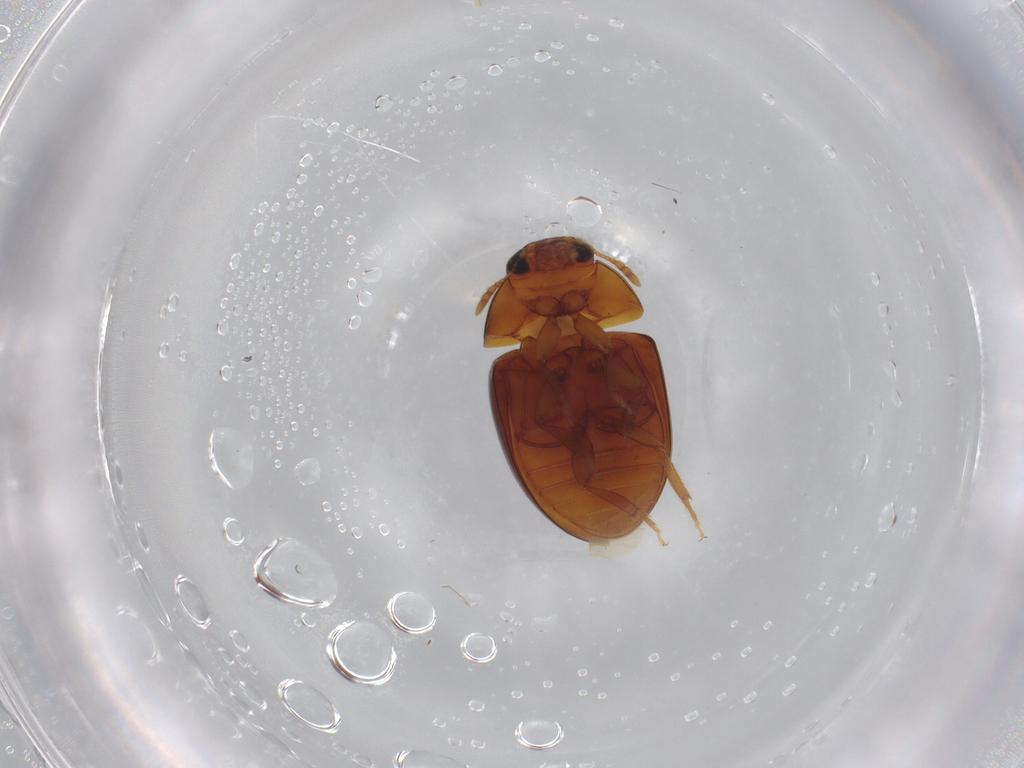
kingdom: Animalia
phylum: Arthropoda
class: Insecta
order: Coleoptera
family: Phalacridae
